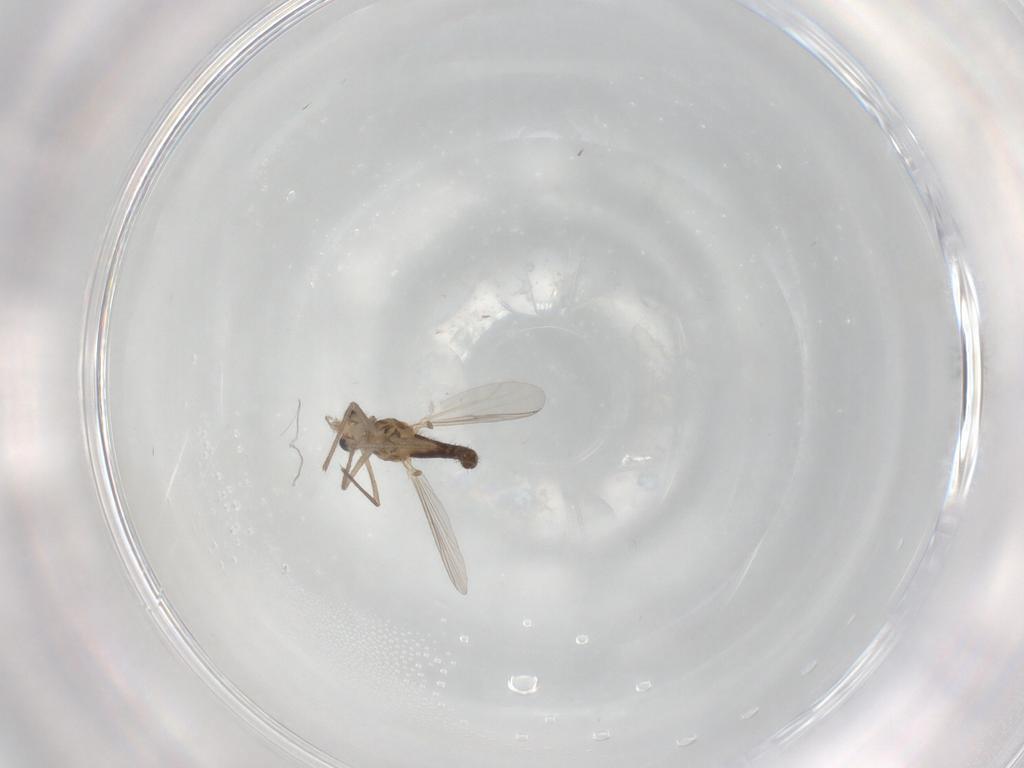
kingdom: Animalia
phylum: Arthropoda
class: Insecta
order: Diptera
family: Chironomidae
